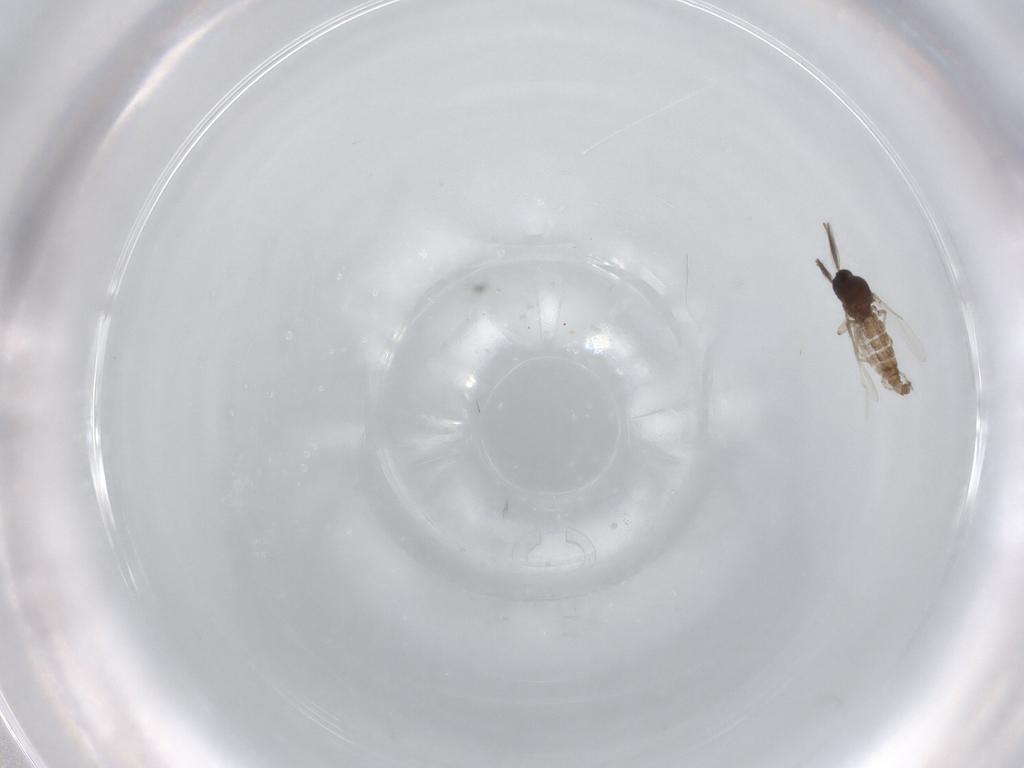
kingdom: Animalia
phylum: Arthropoda
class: Insecta
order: Diptera
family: Ceratopogonidae
